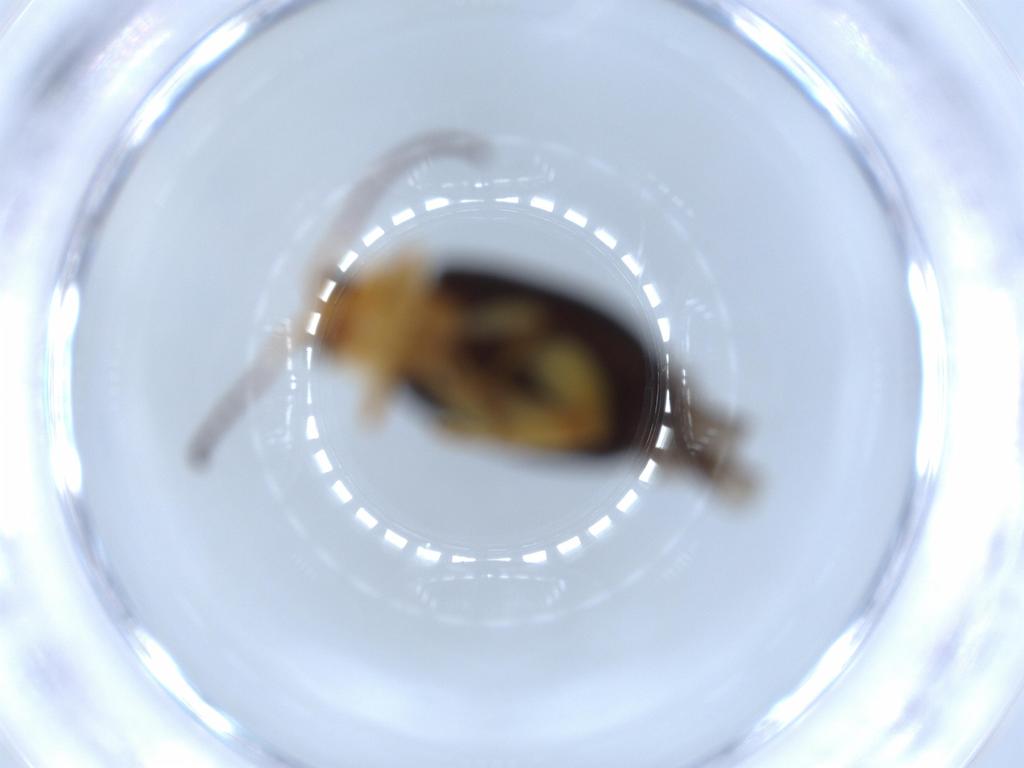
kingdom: Animalia
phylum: Arthropoda
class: Insecta
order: Coleoptera
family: Chrysomelidae
